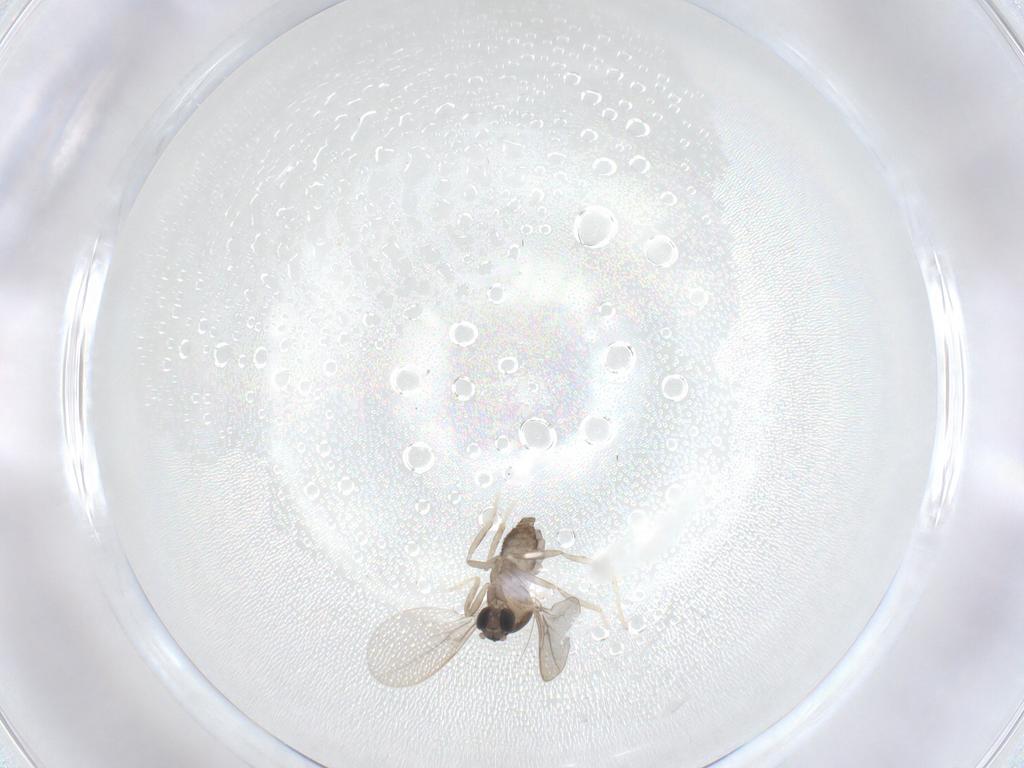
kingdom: Animalia
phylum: Arthropoda
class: Insecta
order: Diptera
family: Cecidomyiidae
